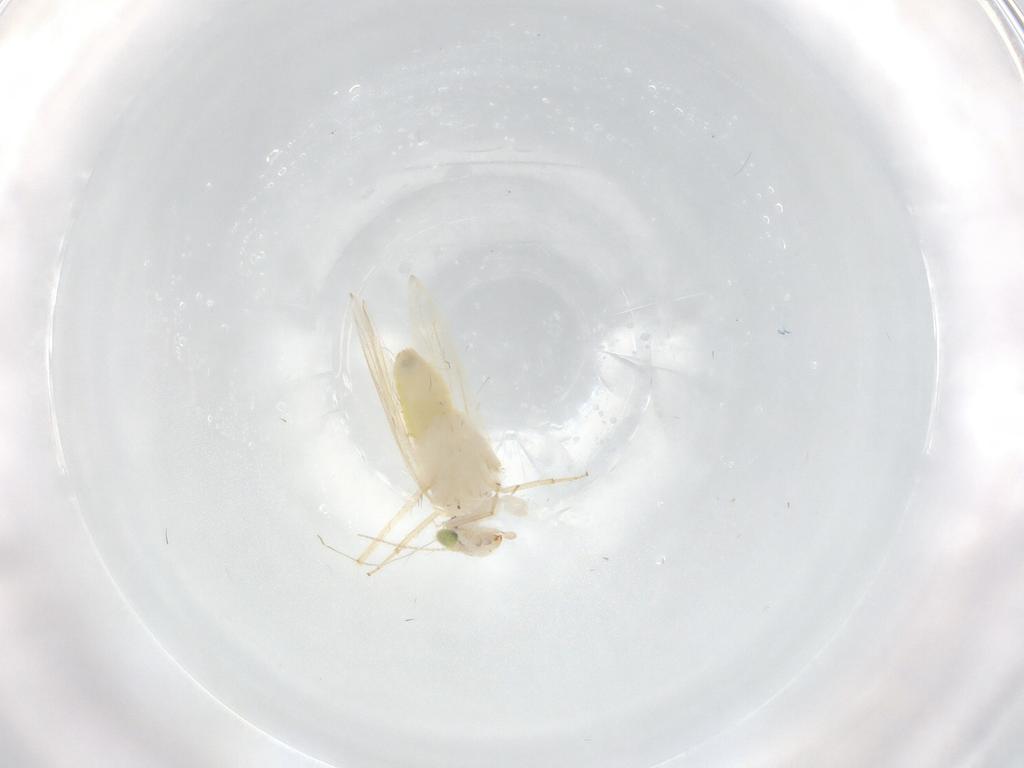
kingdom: Animalia
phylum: Arthropoda
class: Insecta
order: Psocodea
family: Lepidopsocidae
